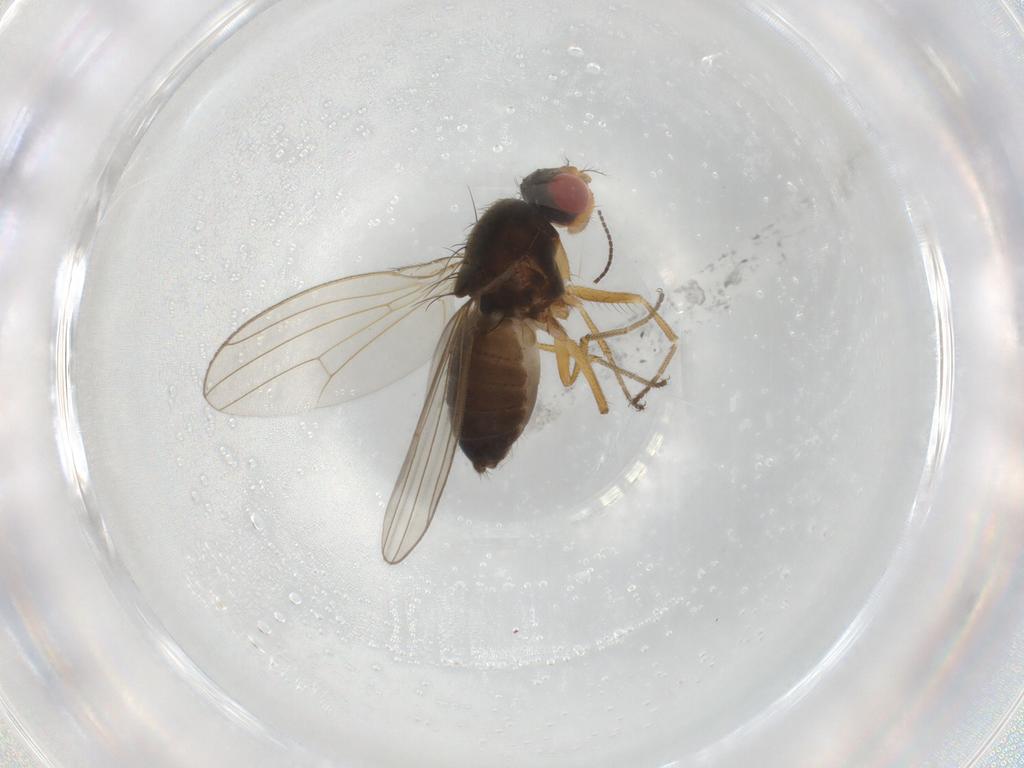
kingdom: Animalia
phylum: Arthropoda
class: Insecta
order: Diptera
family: Drosophilidae
